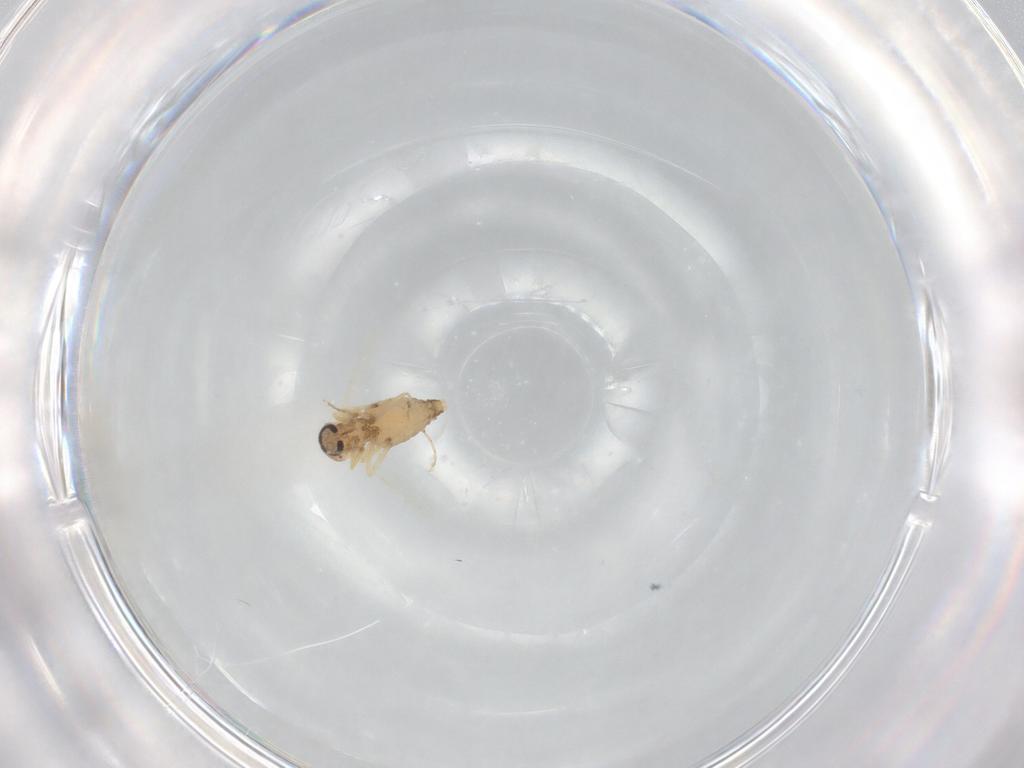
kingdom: Animalia
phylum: Arthropoda
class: Insecta
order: Diptera
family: Ceratopogonidae
